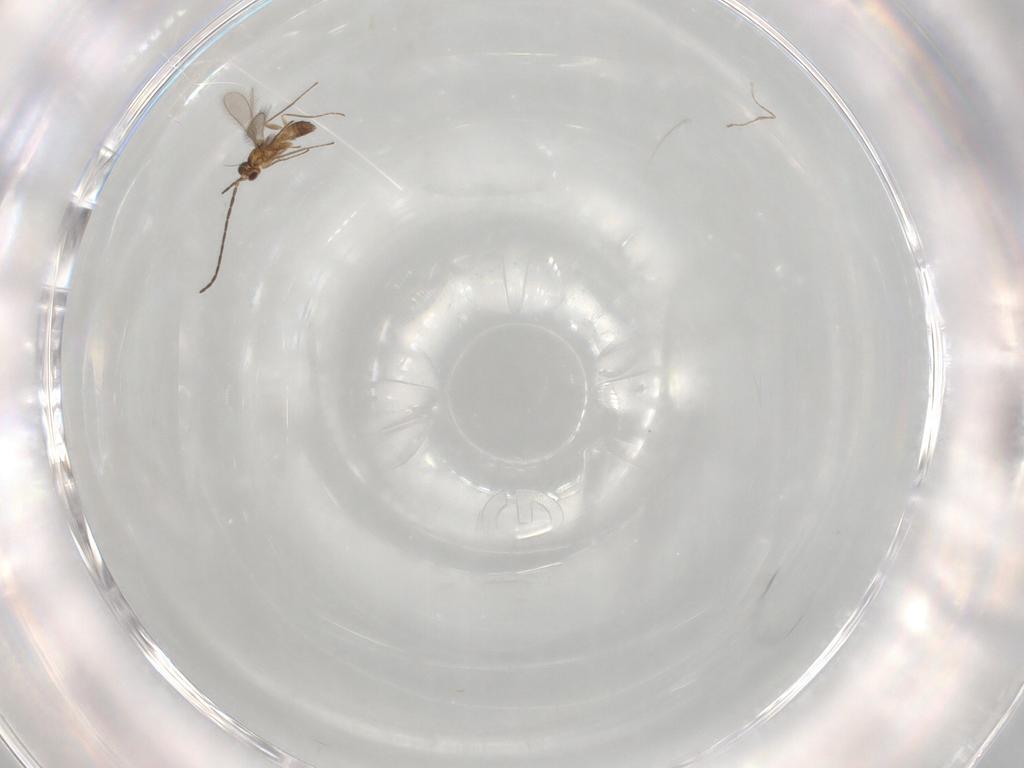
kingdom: Animalia
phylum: Arthropoda
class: Insecta
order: Hymenoptera
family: Mymaridae
